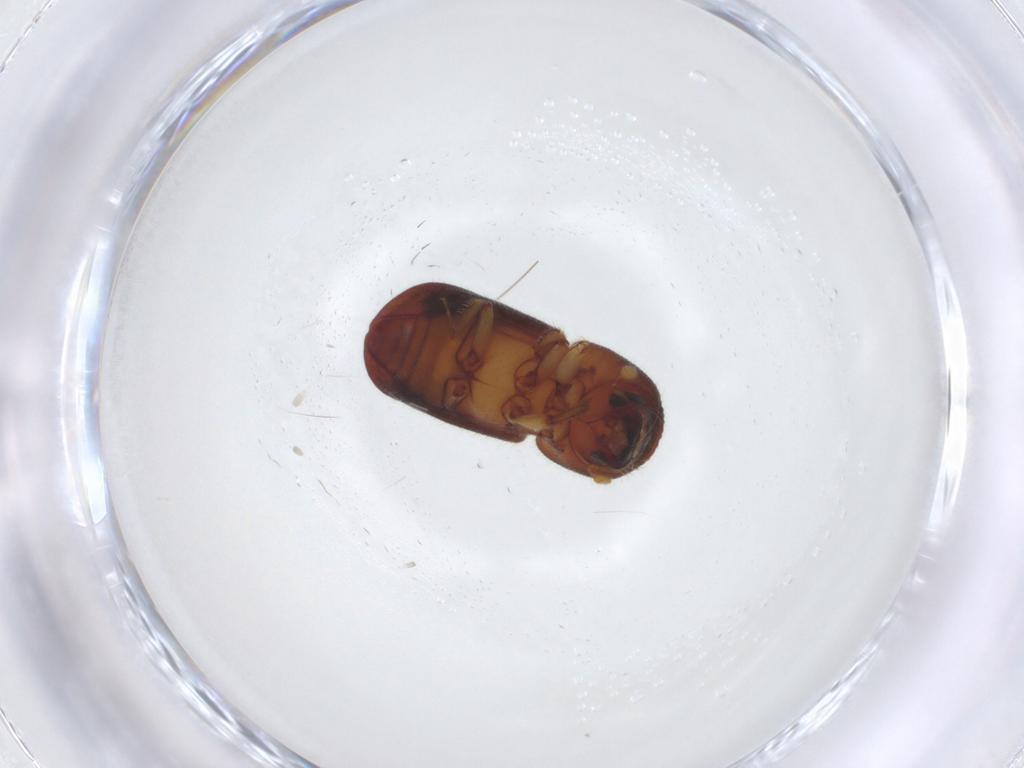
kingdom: Animalia
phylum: Arthropoda
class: Insecta
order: Coleoptera
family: Curculionidae
